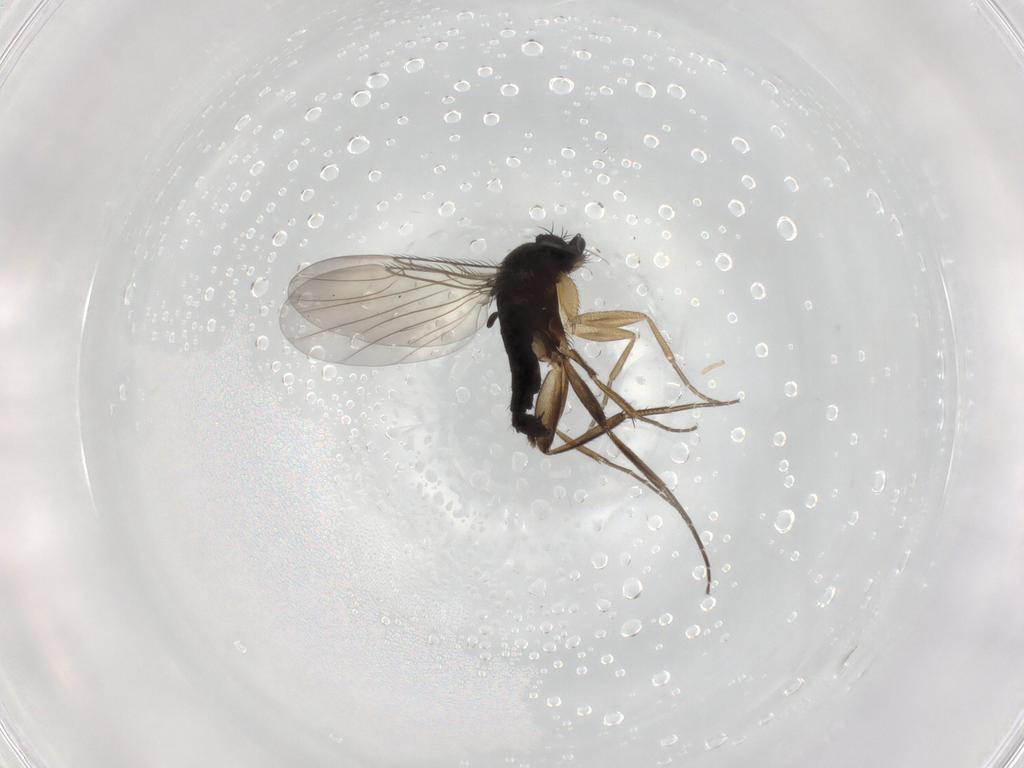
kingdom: Animalia
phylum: Arthropoda
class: Insecta
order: Diptera
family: Phoridae
